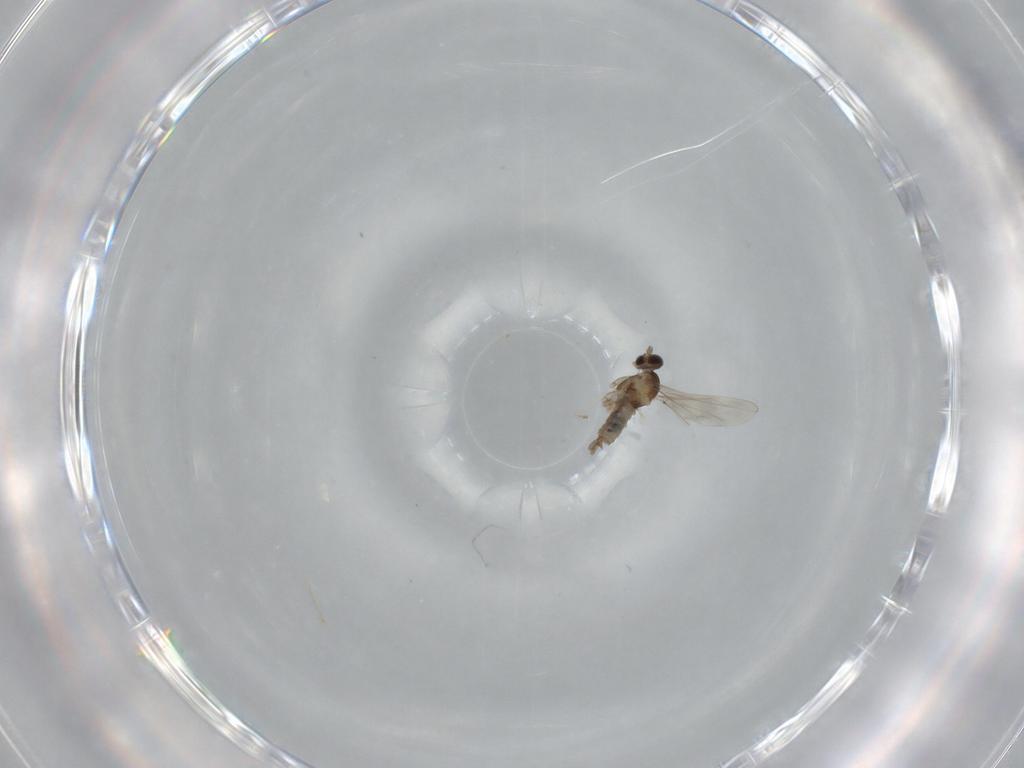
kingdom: Animalia
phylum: Arthropoda
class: Insecta
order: Diptera
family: Cecidomyiidae
